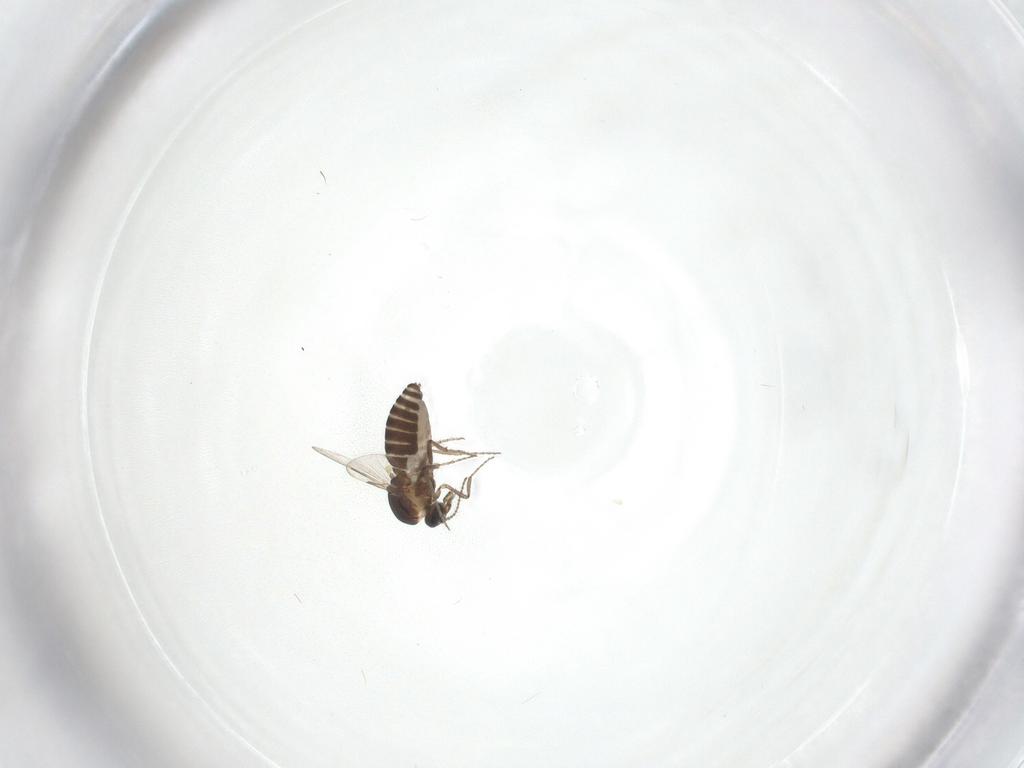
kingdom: Animalia
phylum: Arthropoda
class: Insecta
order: Diptera
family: Ceratopogonidae
